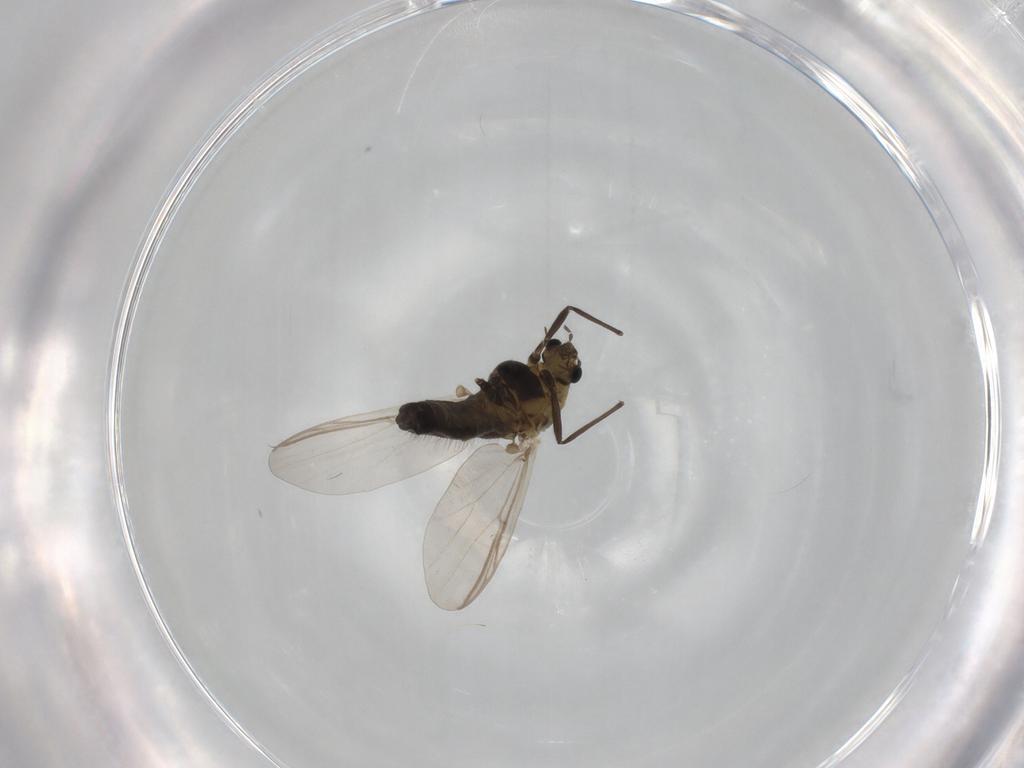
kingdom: Animalia
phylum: Arthropoda
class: Insecta
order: Diptera
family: Chironomidae
